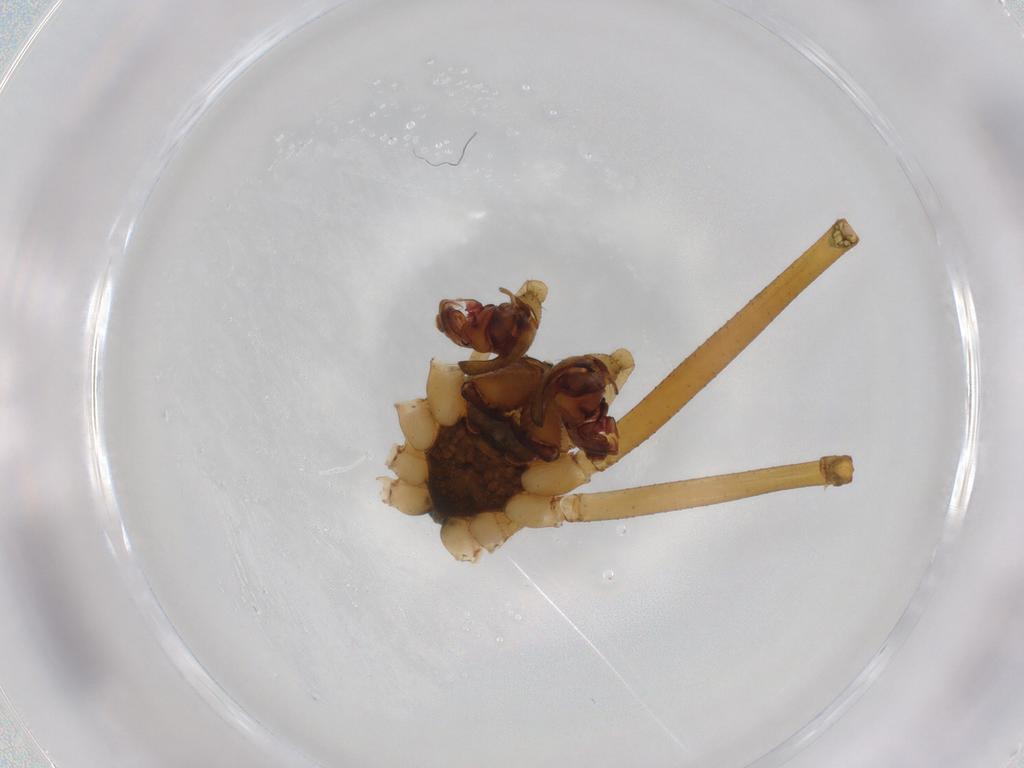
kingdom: Animalia
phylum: Arthropoda
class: Arachnida
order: Araneae
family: Linyphiidae
